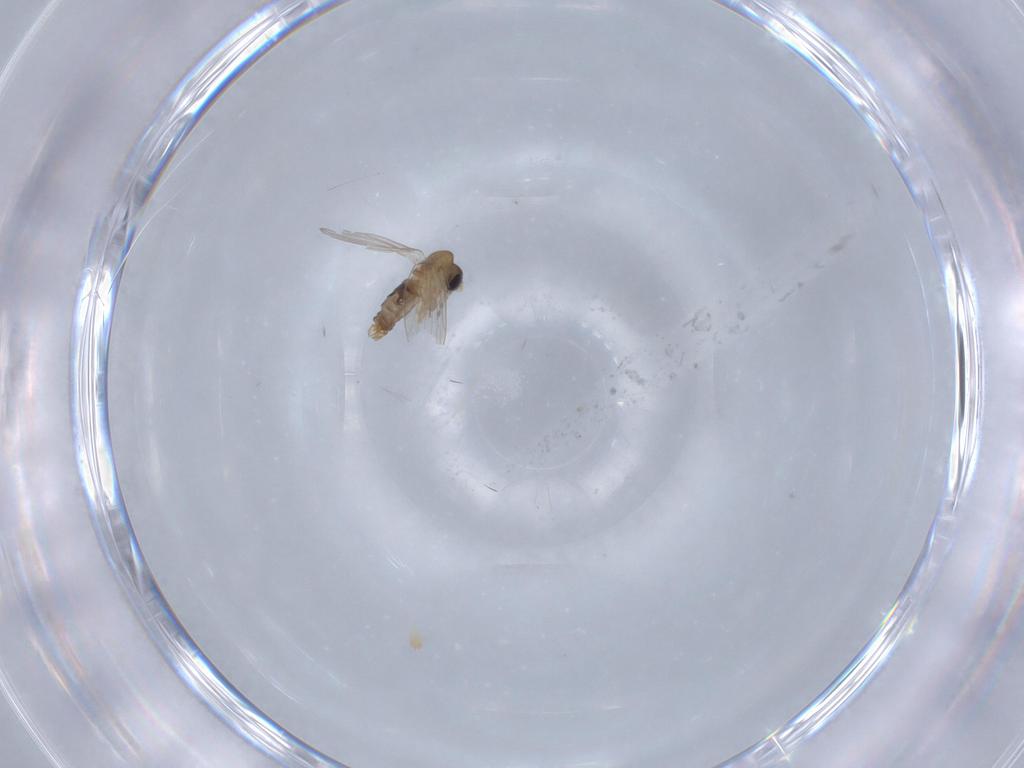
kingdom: Animalia
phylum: Arthropoda
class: Insecta
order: Diptera
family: Psychodidae
